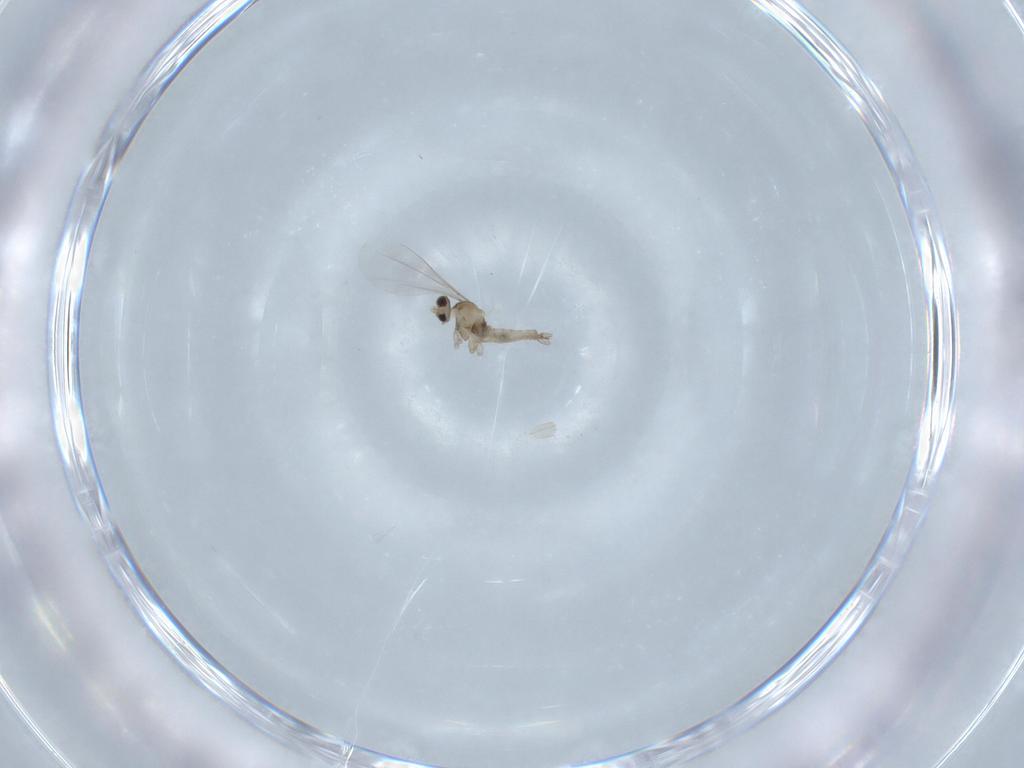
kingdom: Animalia
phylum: Arthropoda
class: Insecta
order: Diptera
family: Cecidomyiidae
